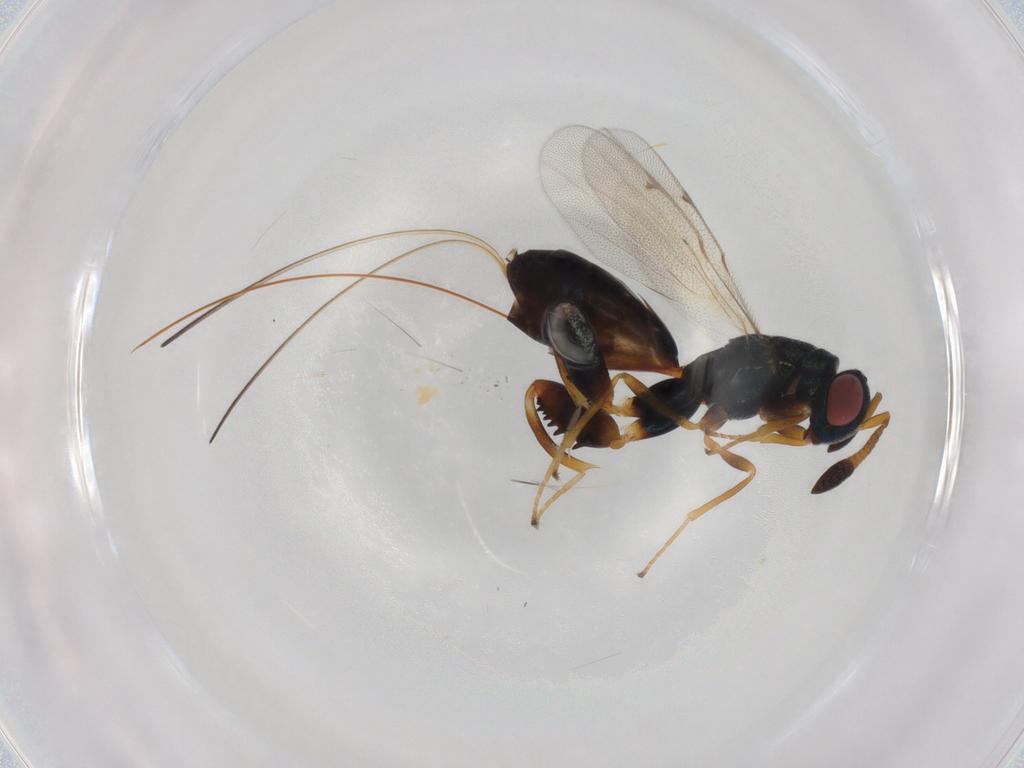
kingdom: Animalia
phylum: Arthropoda
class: Insecta
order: Hymenoptera
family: Torymidae
